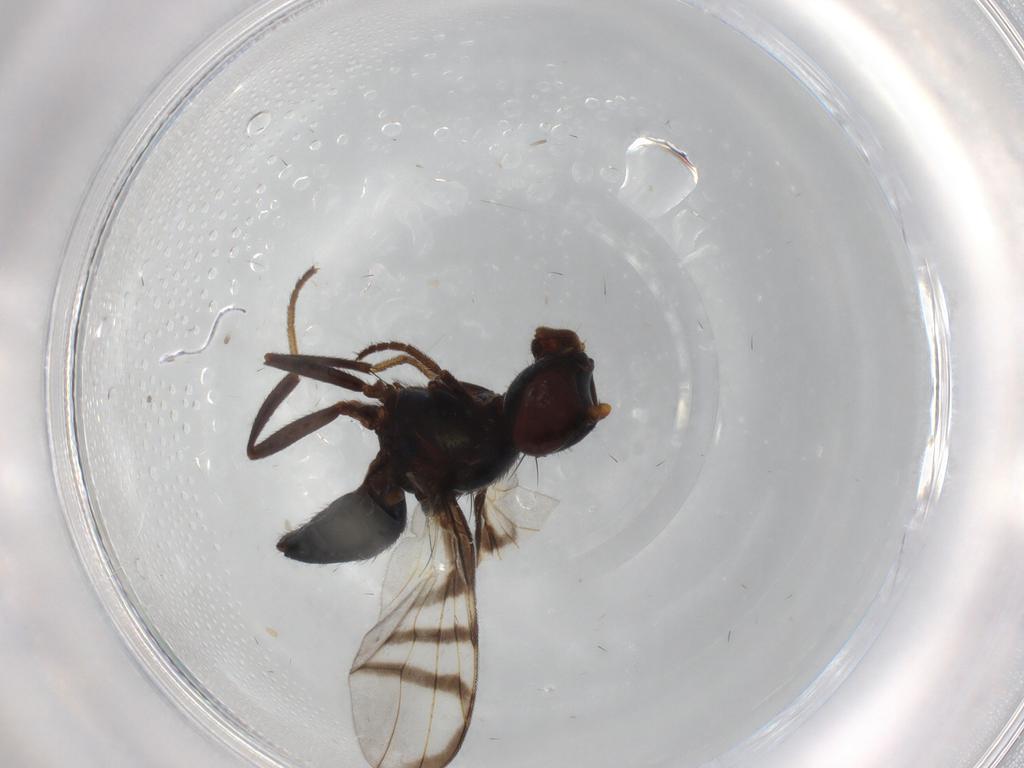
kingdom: Animalia
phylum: Arthropoda
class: Insecta
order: Diptera
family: Ceratopogonidae
